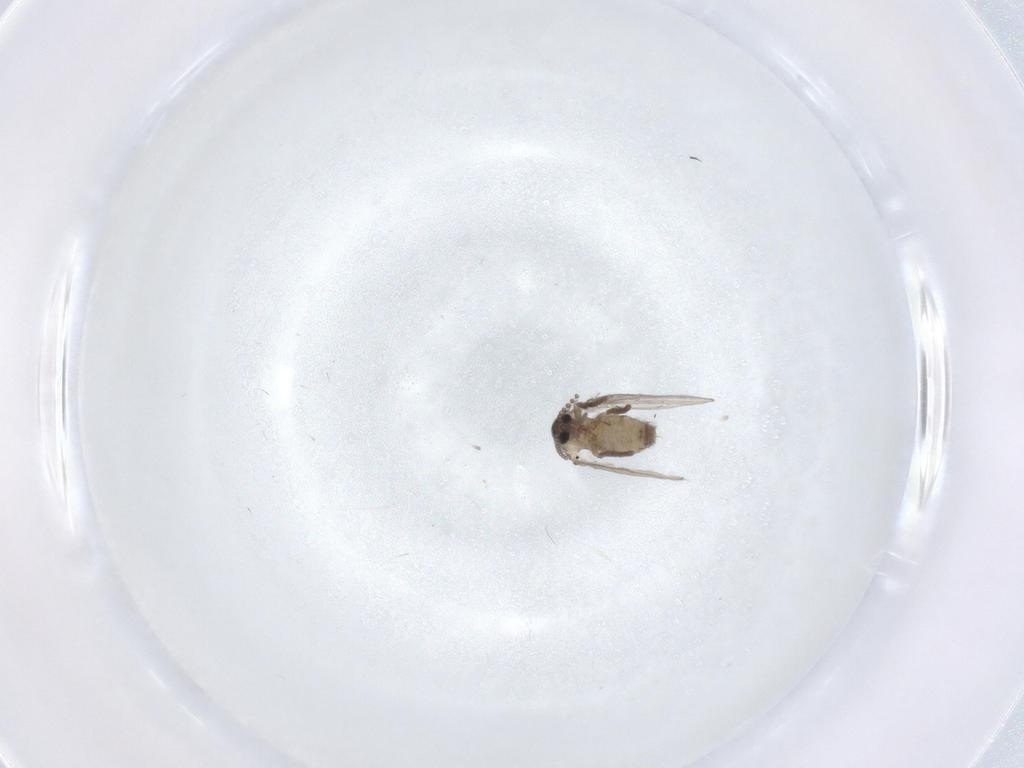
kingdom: Animalia
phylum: Arthropoda
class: Insecta
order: Diptera
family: Psychodidae
